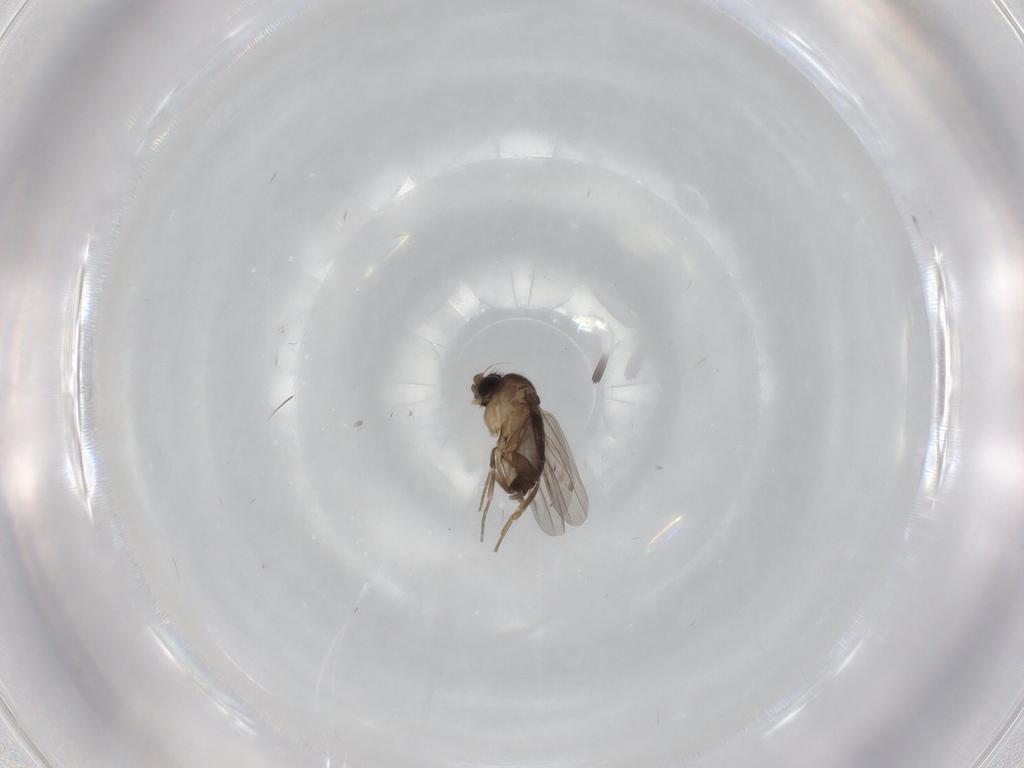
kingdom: Animalia
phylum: Arthropoda
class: Insecta
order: Diptera
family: Phoridae
